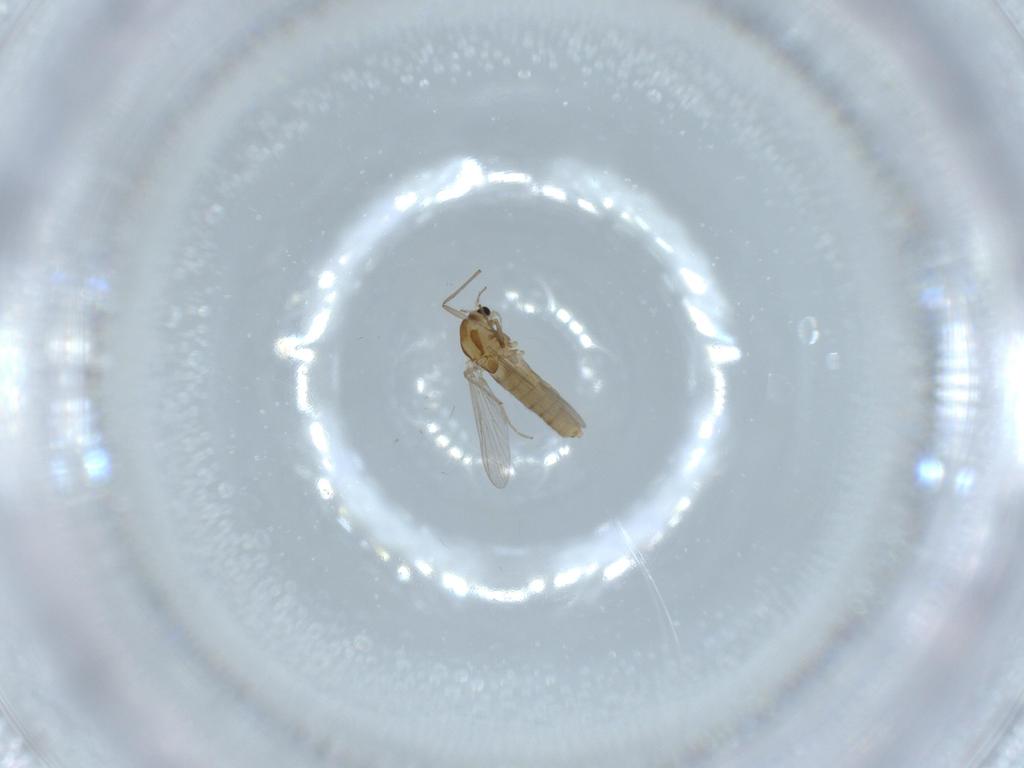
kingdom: Animalia
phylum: Arthropoda
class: Insecta
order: Diptera
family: Chironomidae
